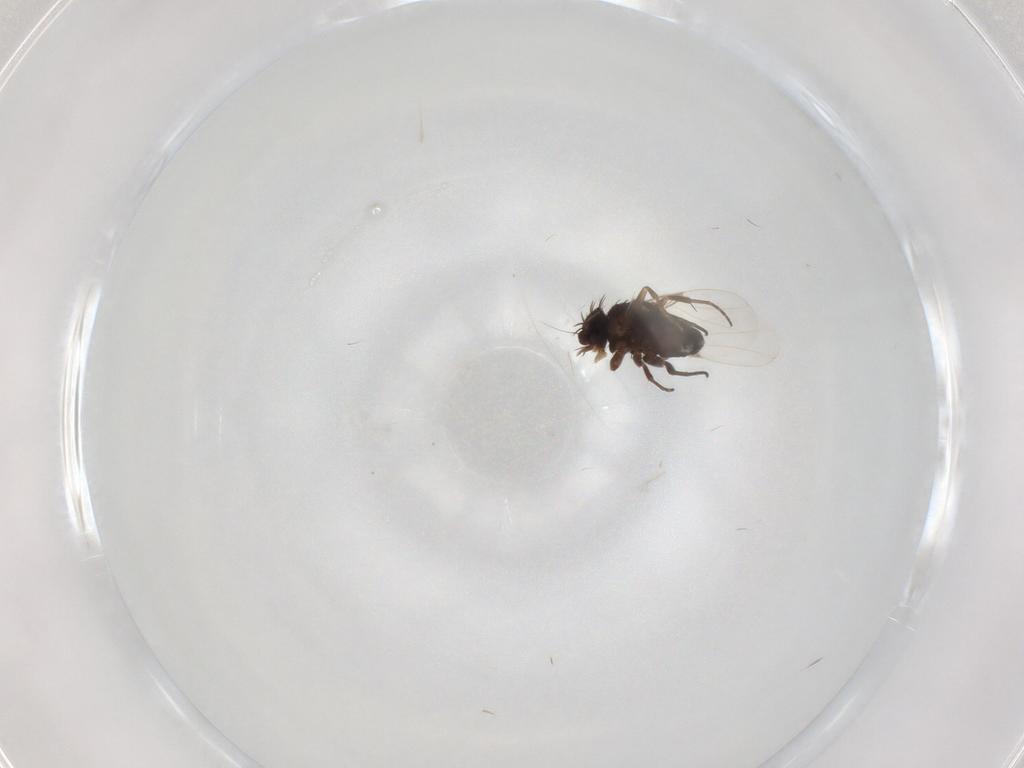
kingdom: Animalia
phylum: Arthropoda
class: Insecta
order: Diptera
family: Phoridae
